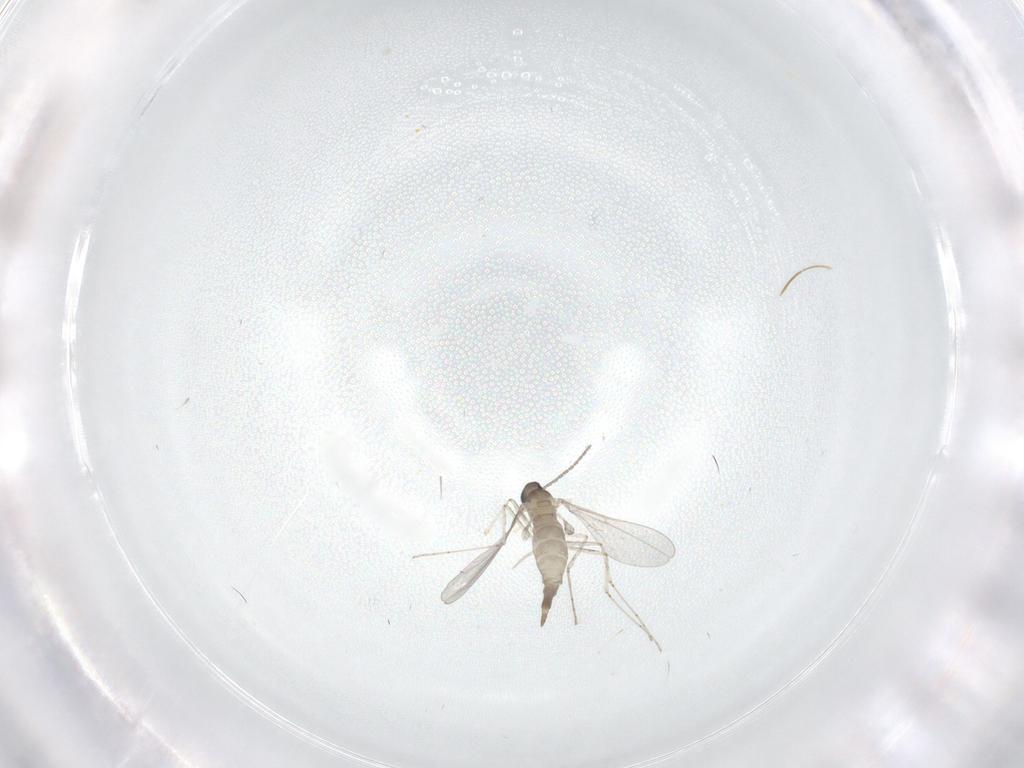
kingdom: Animalia
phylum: Arthropoda
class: Insecta
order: Diptera
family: Cecidomyiidae
